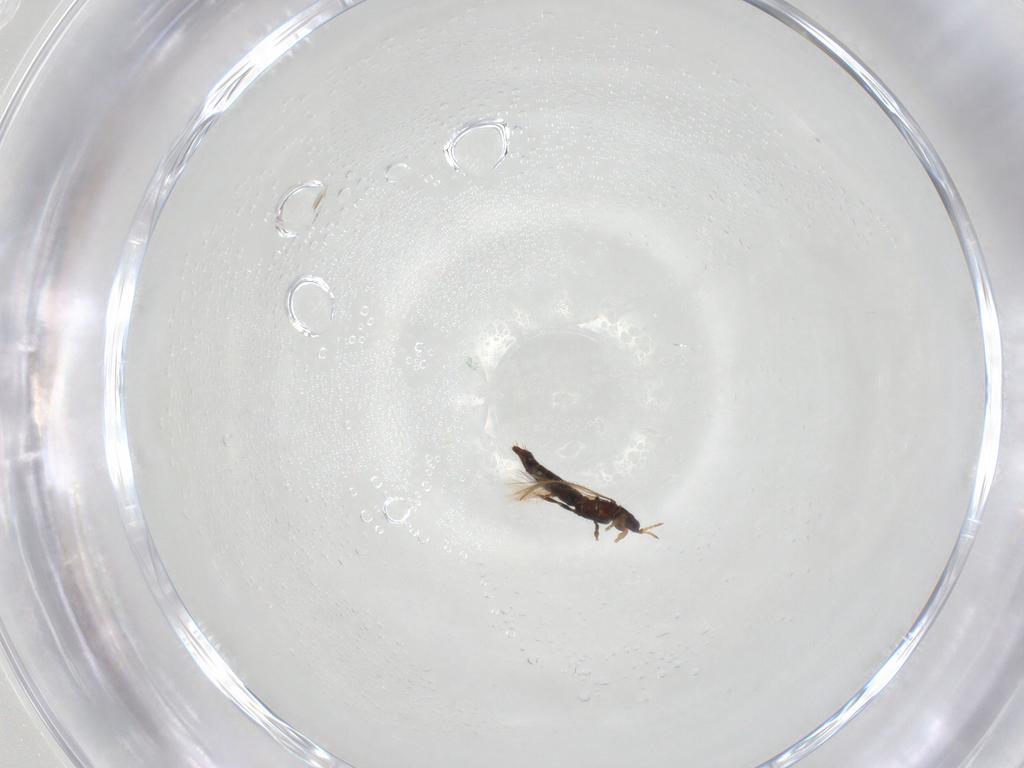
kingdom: Animalia
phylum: Arthropoda
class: Insecta
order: Thysanoptera
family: Thripidae
